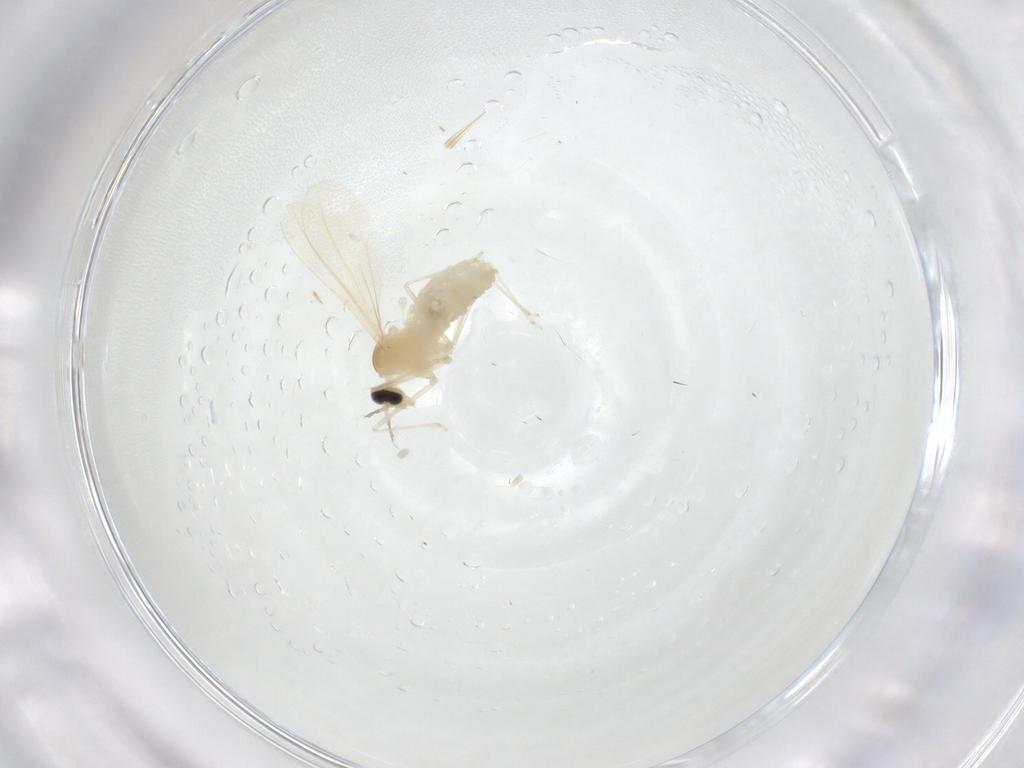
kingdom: Animalia
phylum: Arthropoda
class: Insecta
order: Diptera
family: Cecidomyiidae
